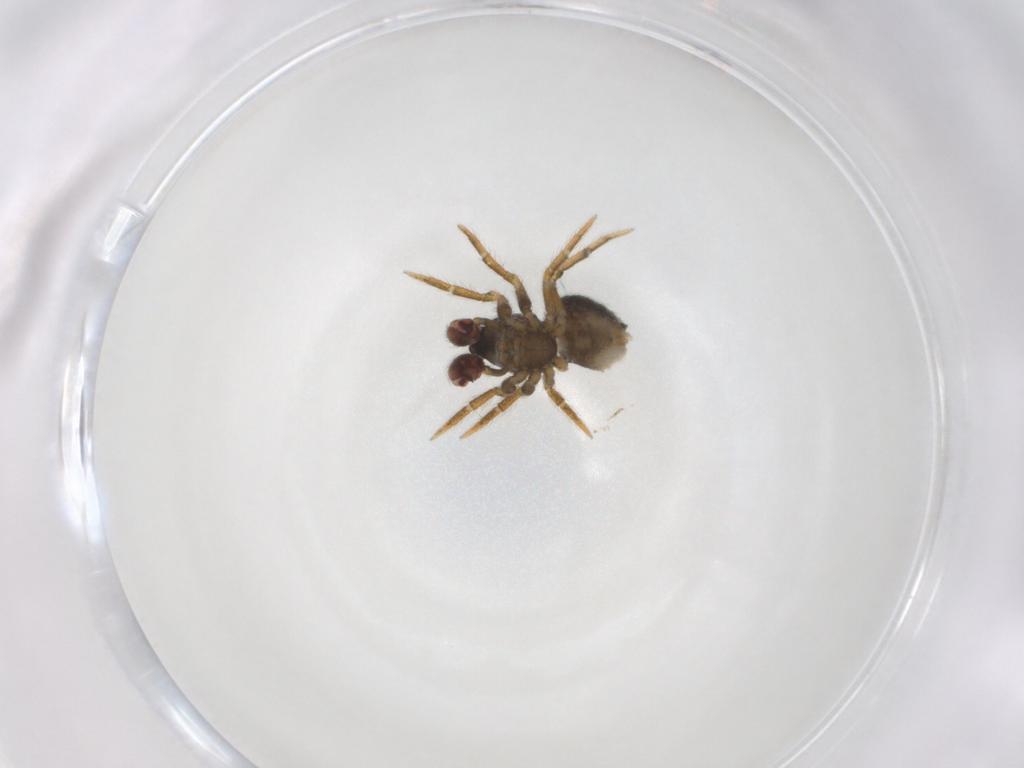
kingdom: Animalia
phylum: Arthropoda
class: Arachnida
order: Araneae
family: Theridiidae
